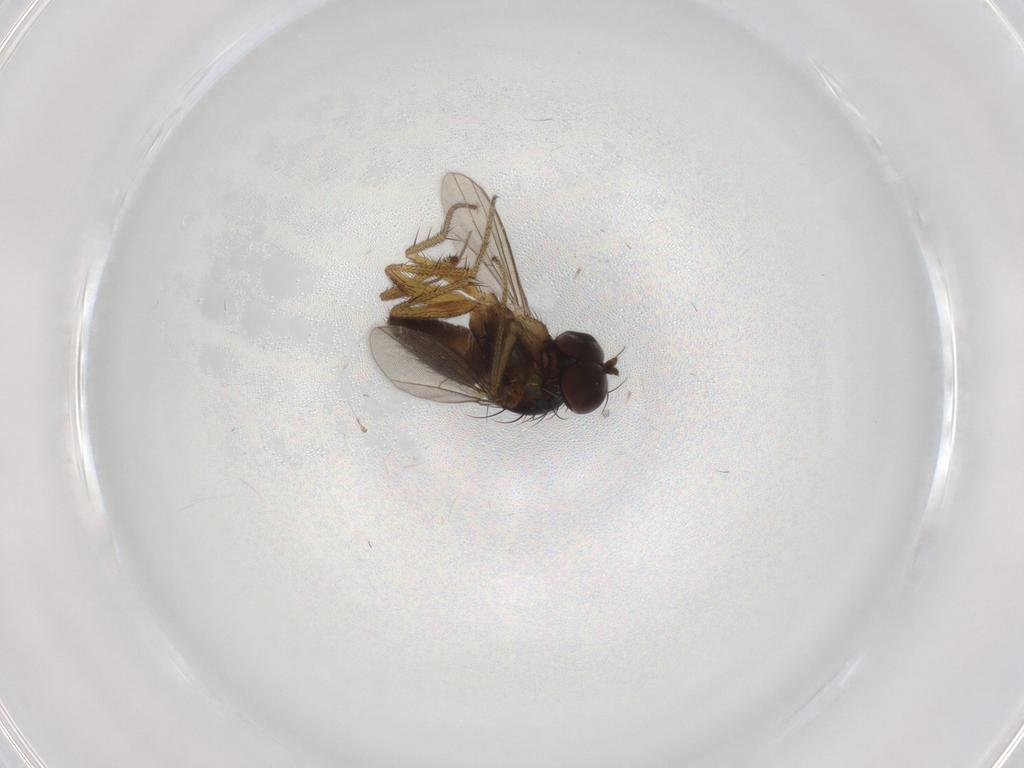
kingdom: Animalia
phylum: Arthropoda
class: Insecta
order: Diptera
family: Dolichopodidae
